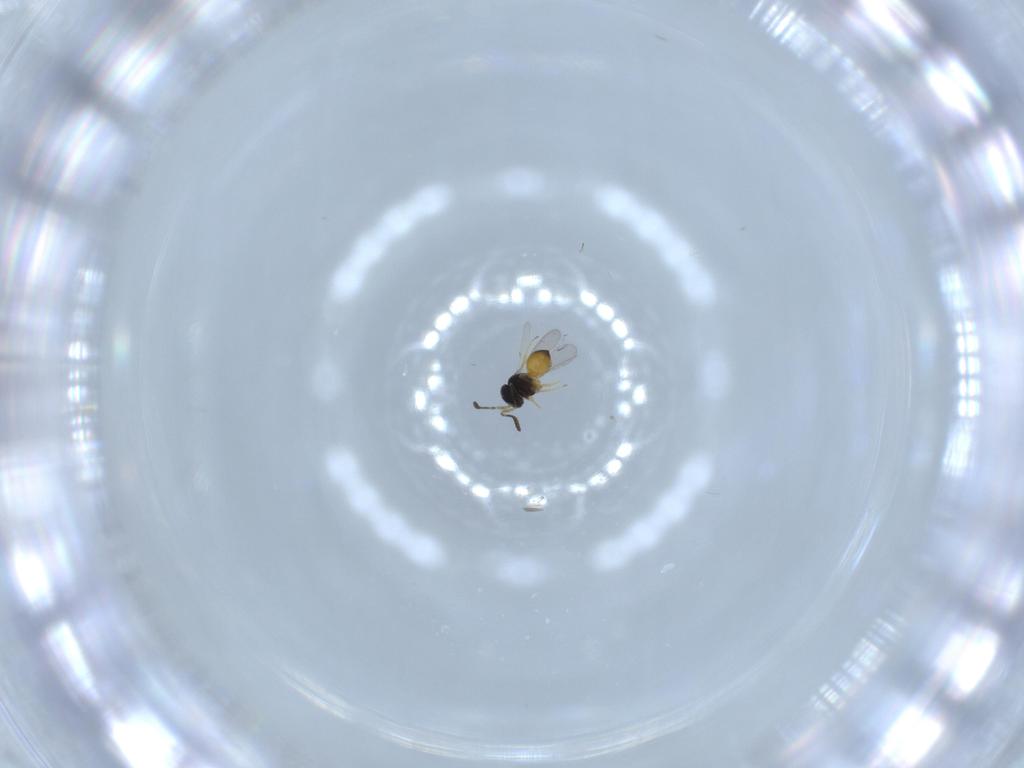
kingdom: Animalia
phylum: Arthropoda
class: Insecta
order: Hymenoptera
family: Scelionidae
